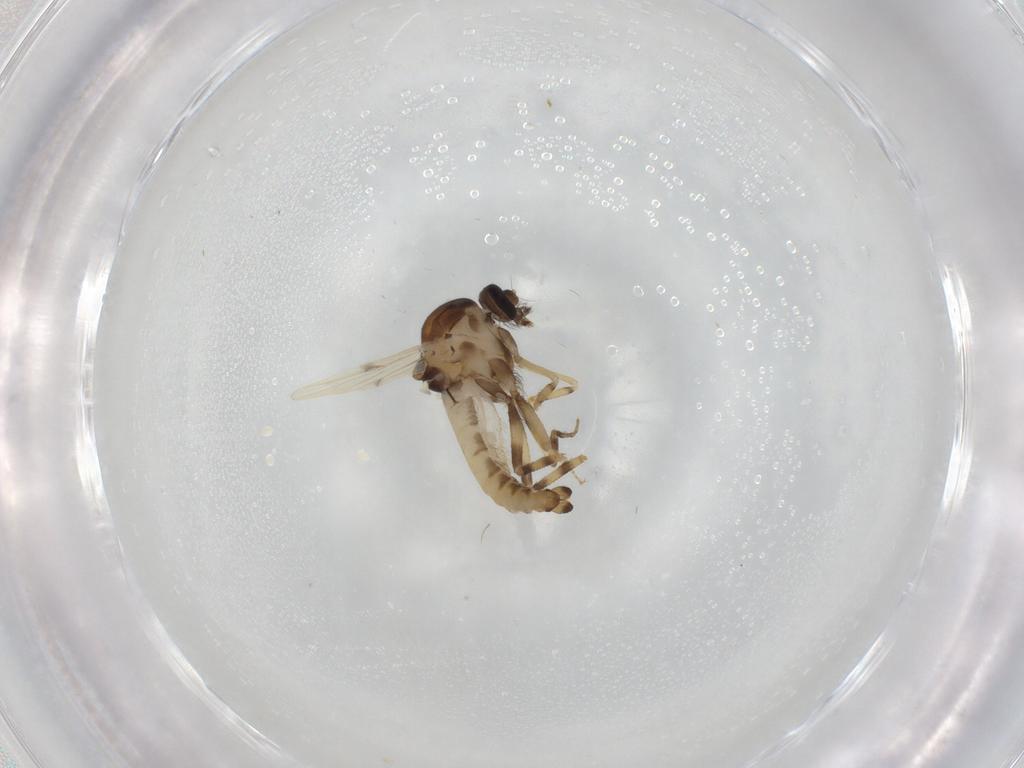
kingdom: Animalia
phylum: Arthropoda
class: Insecta
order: Diptera
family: Ceratopogonidae
